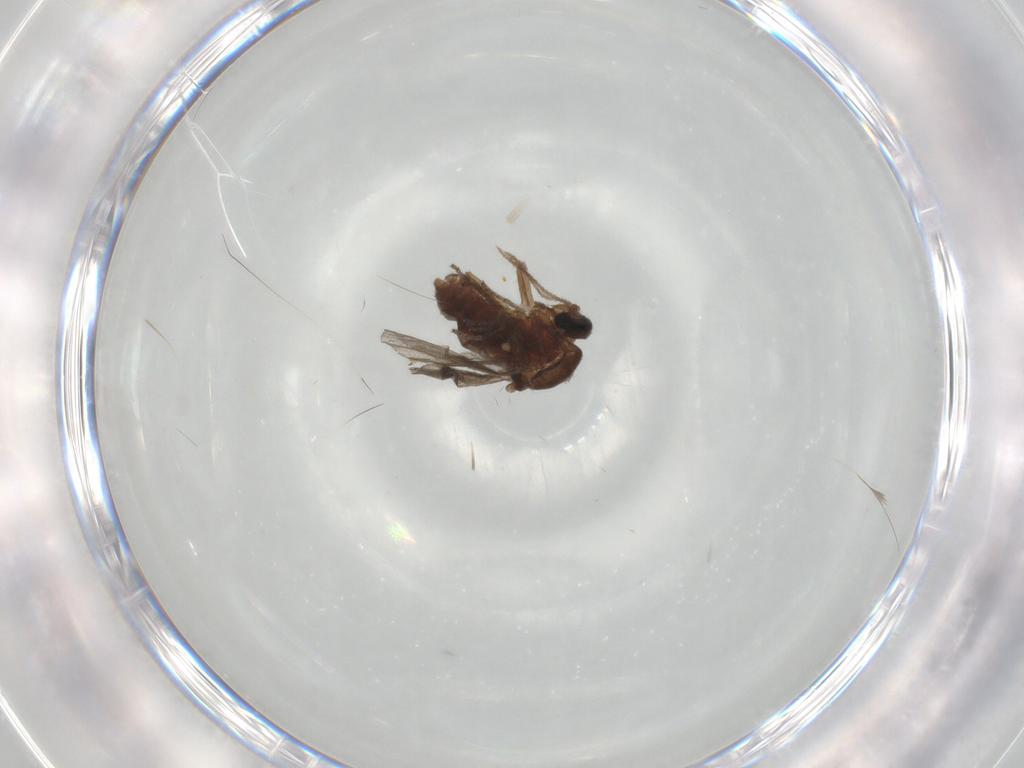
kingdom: Animalia
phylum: Arthropoda
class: Insecta
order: Diptera
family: Ceratopogonidae
